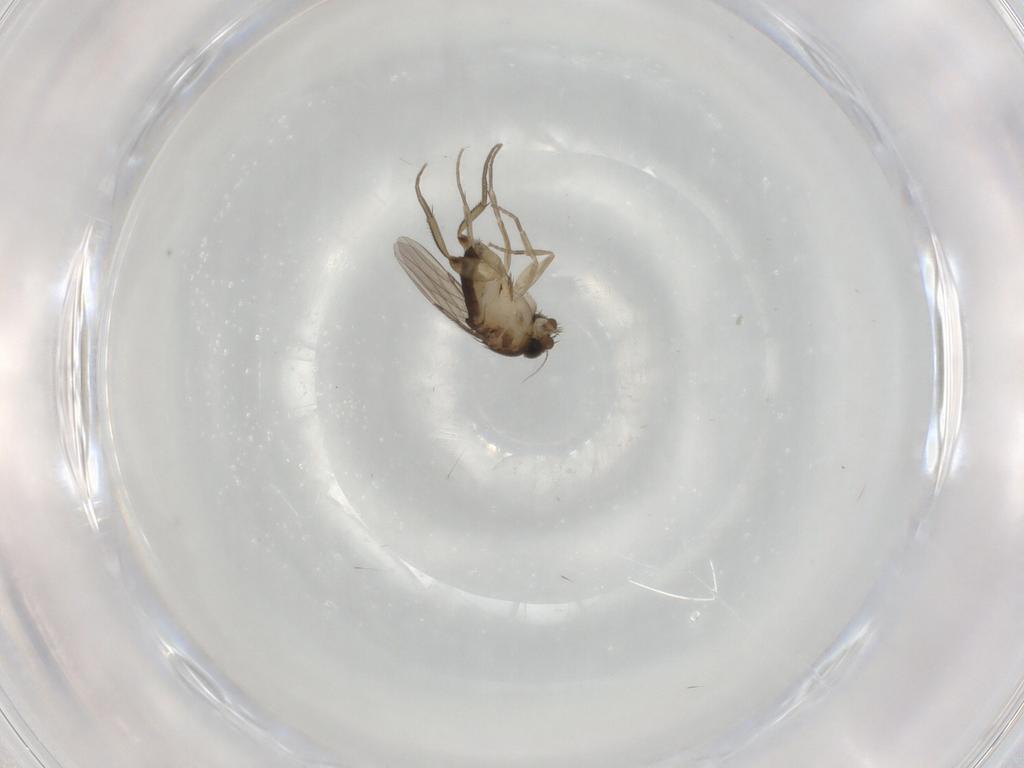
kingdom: Animalia
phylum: Arthropoda
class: Insecta
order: Diptera
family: Phoridae
